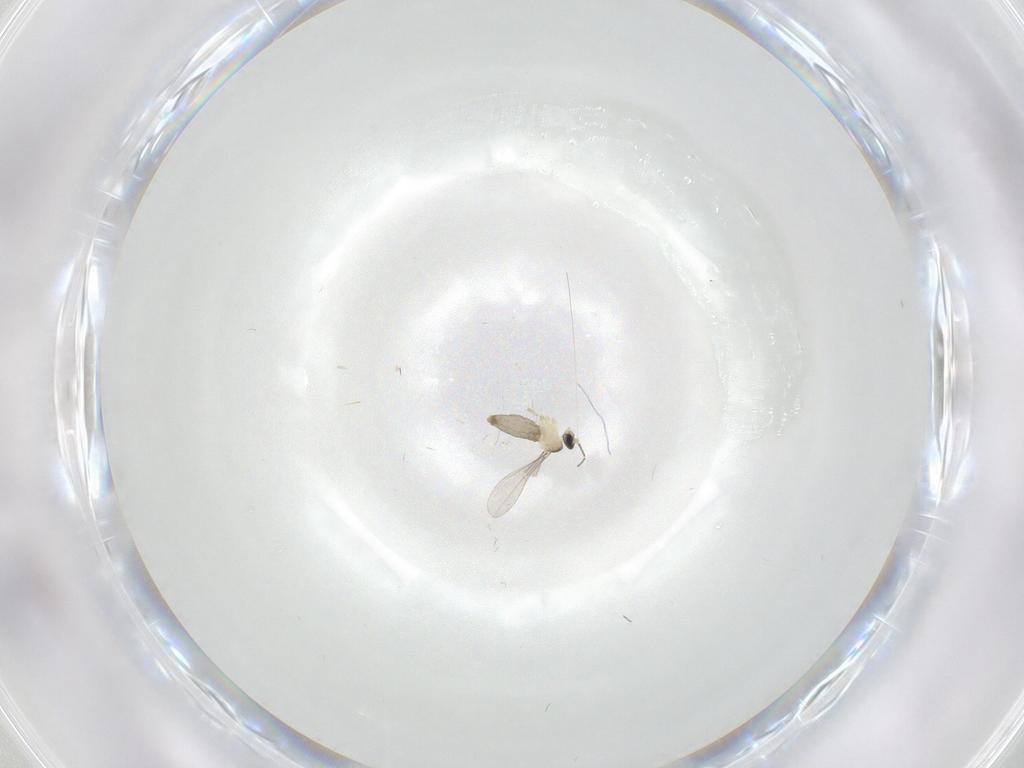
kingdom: Animalia
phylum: Arthropoda
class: Insecta
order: Diptera
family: Cecidomyiidae
